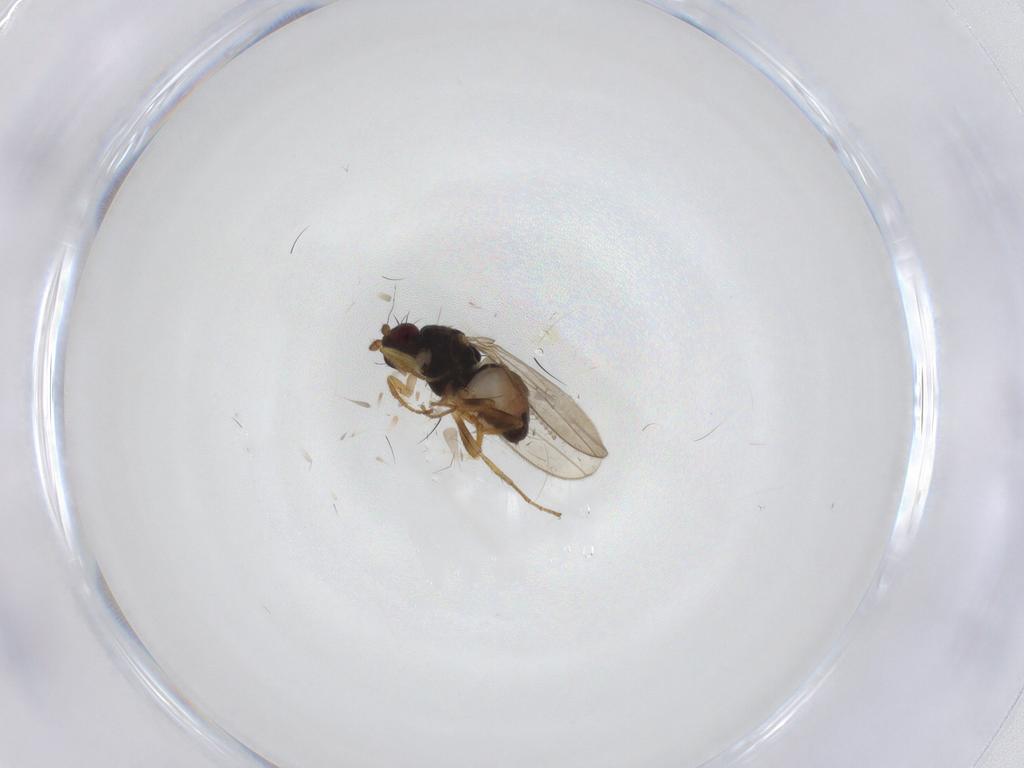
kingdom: Animalia
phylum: Arthropoda
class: Insecta
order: Diptera
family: Sphaeroceridae
